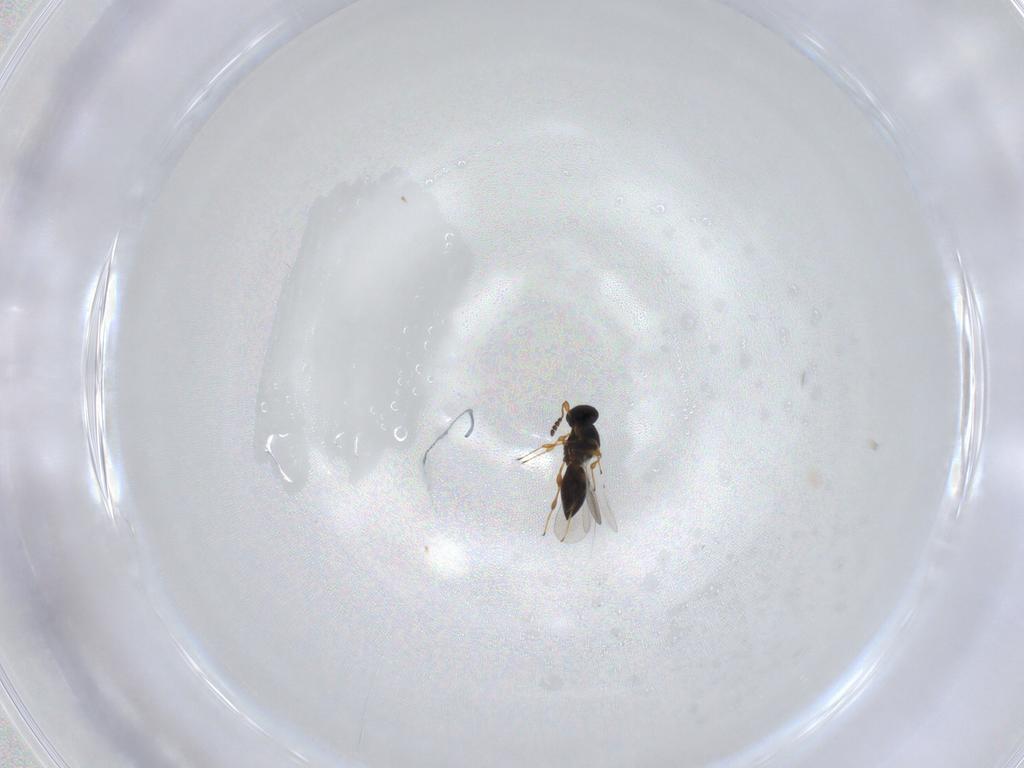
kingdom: Animalia
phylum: Arthropoda
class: Insecta
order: Hymenoptera
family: Platygastridae
